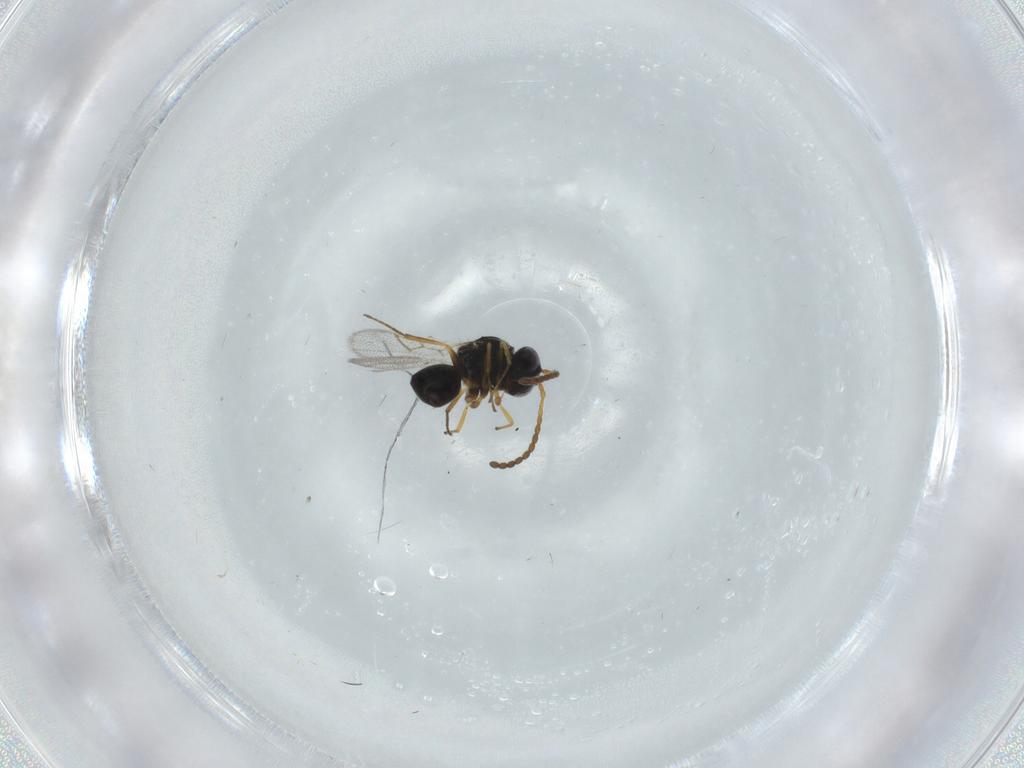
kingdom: Animalia
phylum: Arthropoda
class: Insecta
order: Hymenoptera
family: Figitidae
